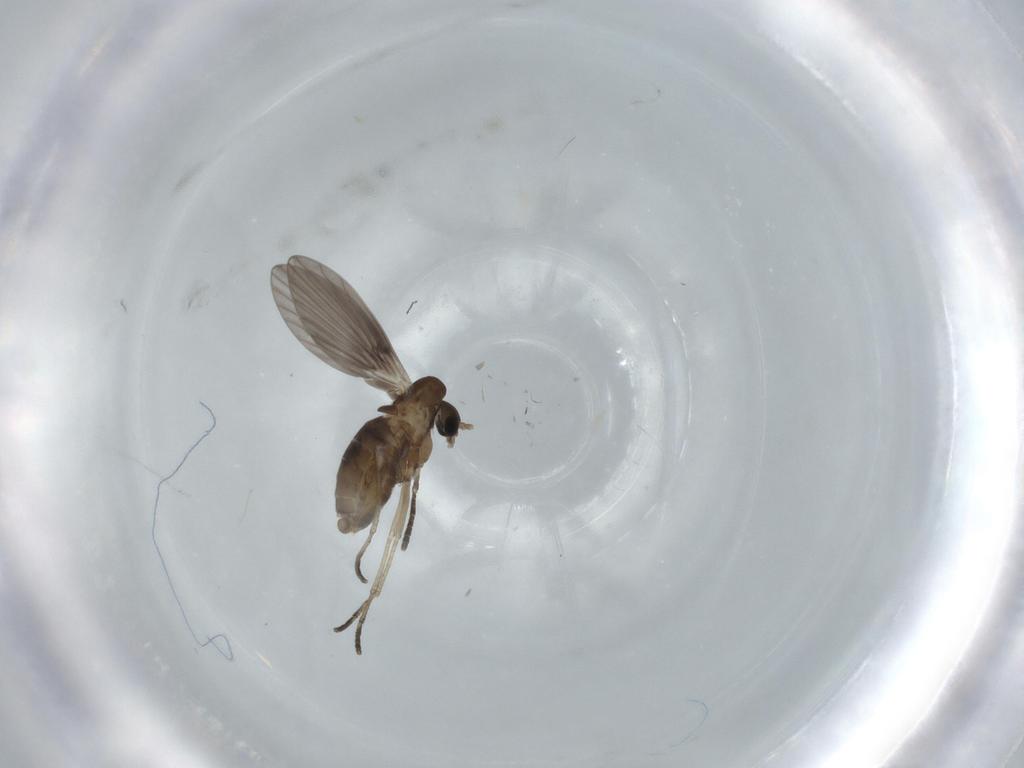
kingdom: Animalia
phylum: Arthropoda
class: Insecta
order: Diptera
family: Psychodidae
